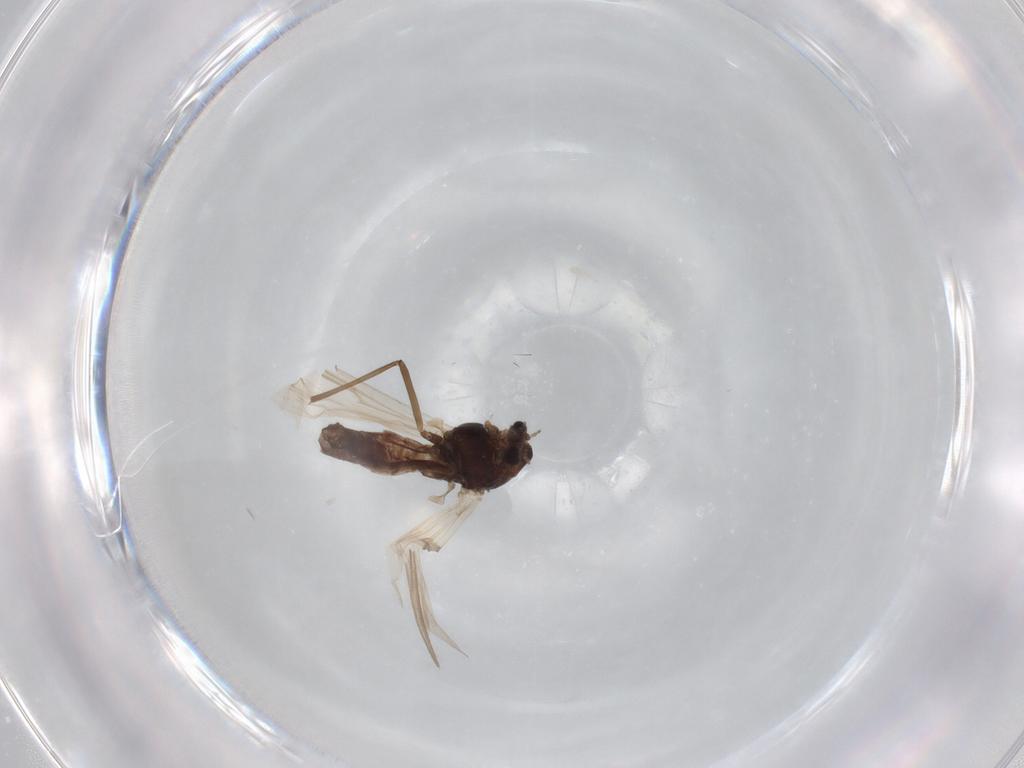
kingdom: Animalia
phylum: Arthropoda
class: Insecta
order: Diptera
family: Chironomidae
